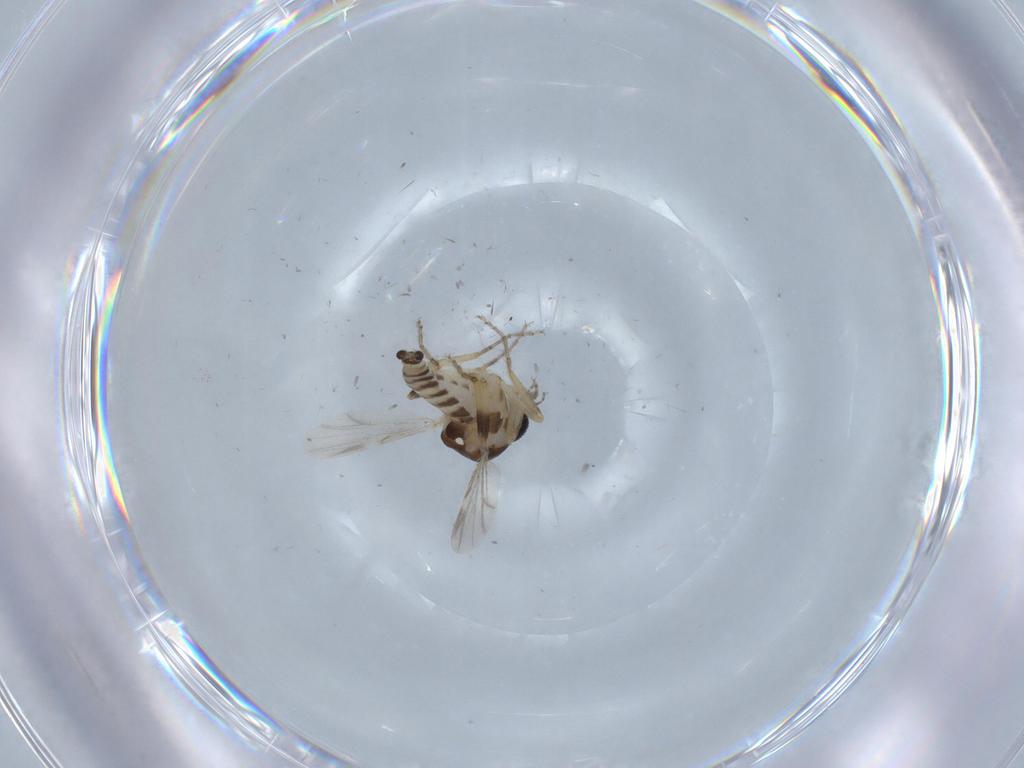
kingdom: Animalia
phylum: Arthropoda
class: Insecta
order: Diptera
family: Ceratopogonidae
